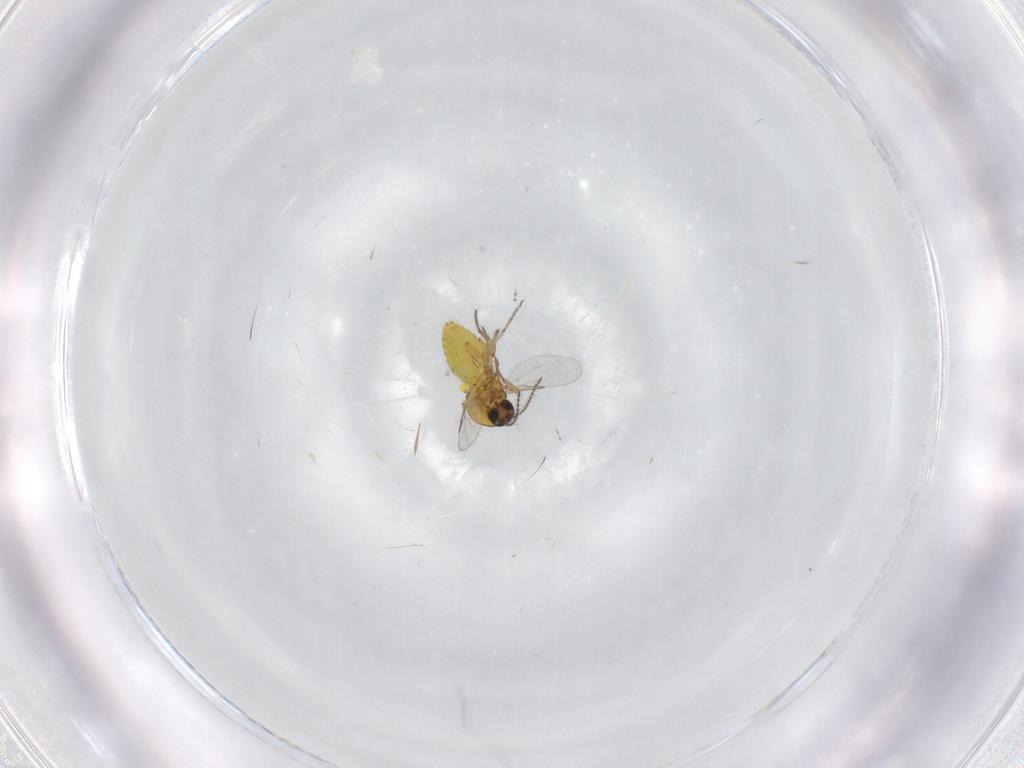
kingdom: Animalia
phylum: Arthropoda
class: Insecta
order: Diptera
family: Ceratopogonidae
